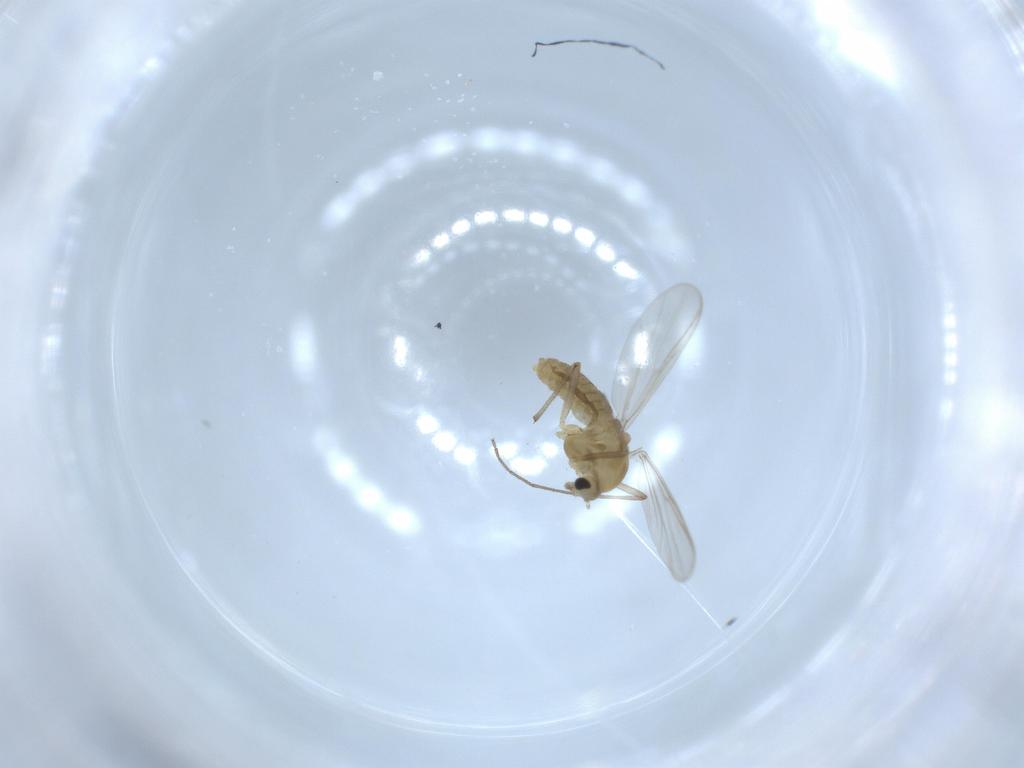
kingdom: Animalia
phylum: Arthropoda
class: Insecta
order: Diptera
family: Chironomidae
